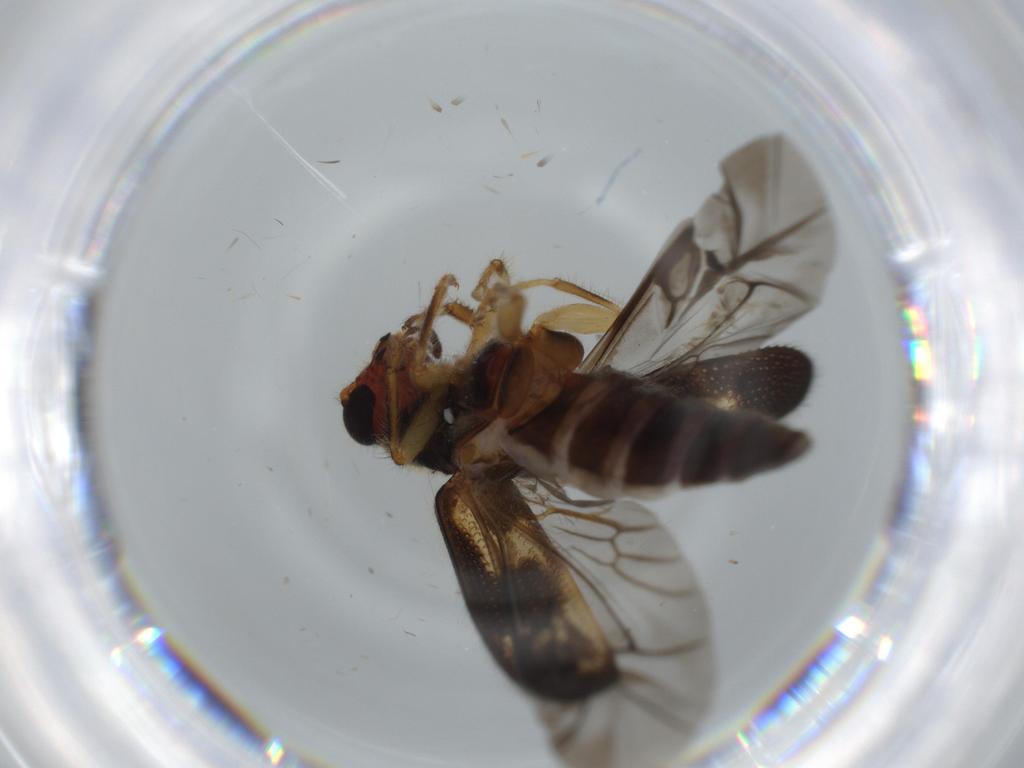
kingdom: Animalia
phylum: Arthropoda
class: Insecta
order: Coleoptera
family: Cleridae
